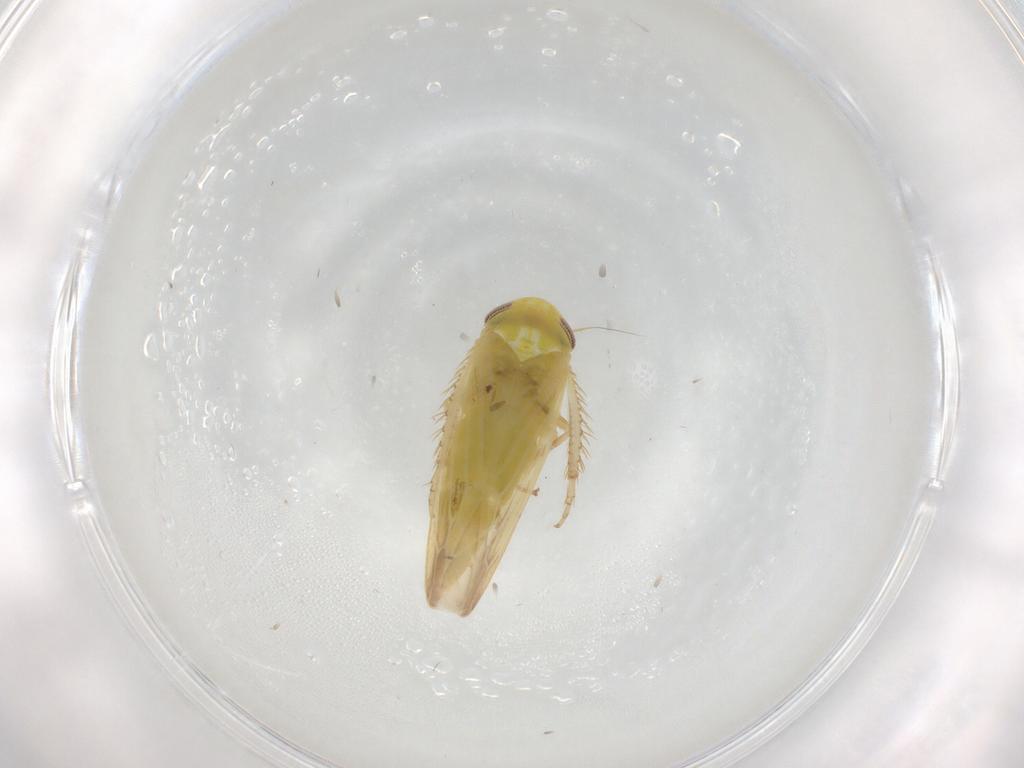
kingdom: Animalia
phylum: Arthropoda
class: Insecta
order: Hemiptera
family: Cicadellidae
